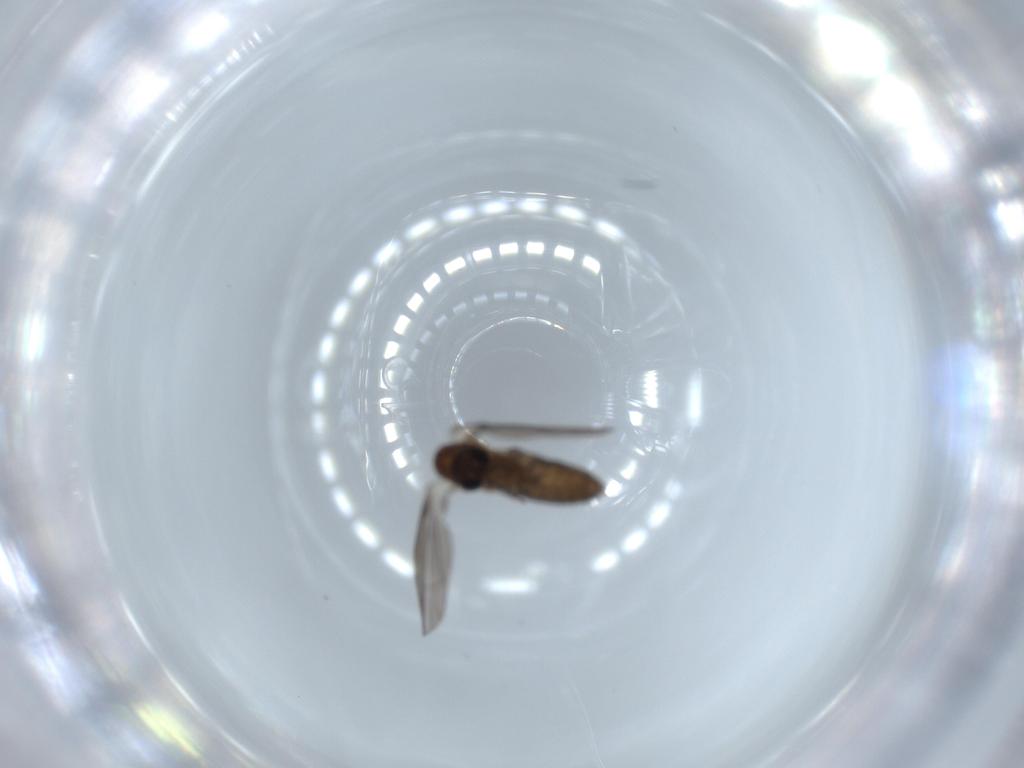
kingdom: Animalia
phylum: Arthropoda
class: Insecta
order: Diptera
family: Psychodidae
